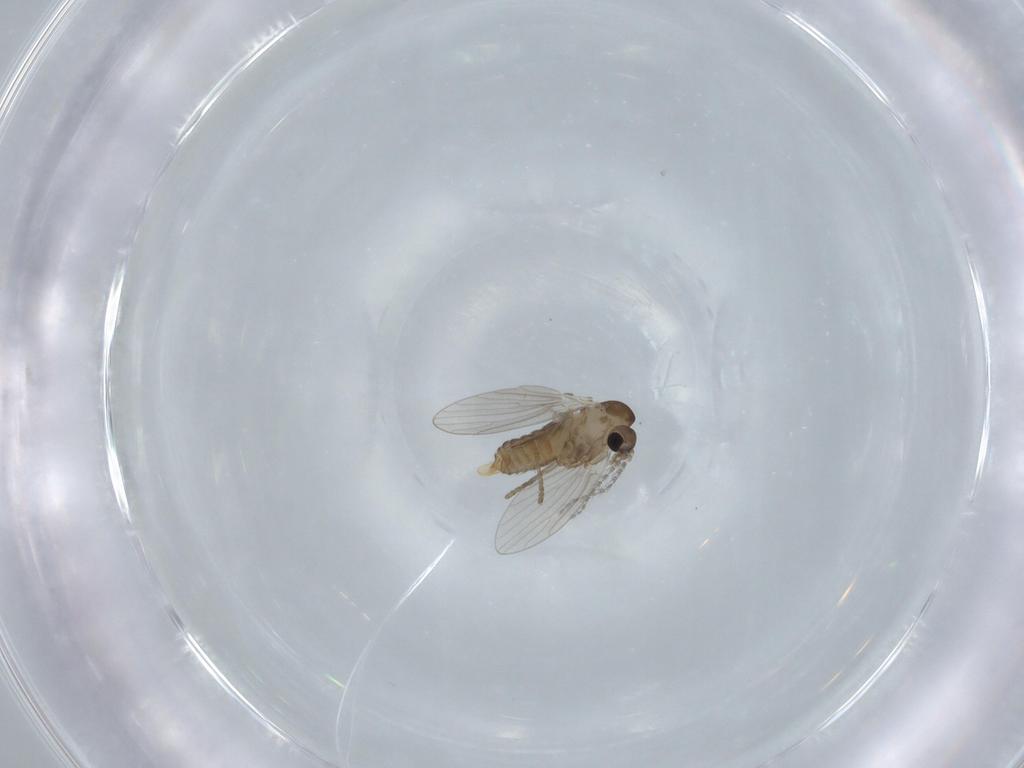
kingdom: Animalia
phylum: Arthropoda
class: Insecta
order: Diptera
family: Psychodidae
